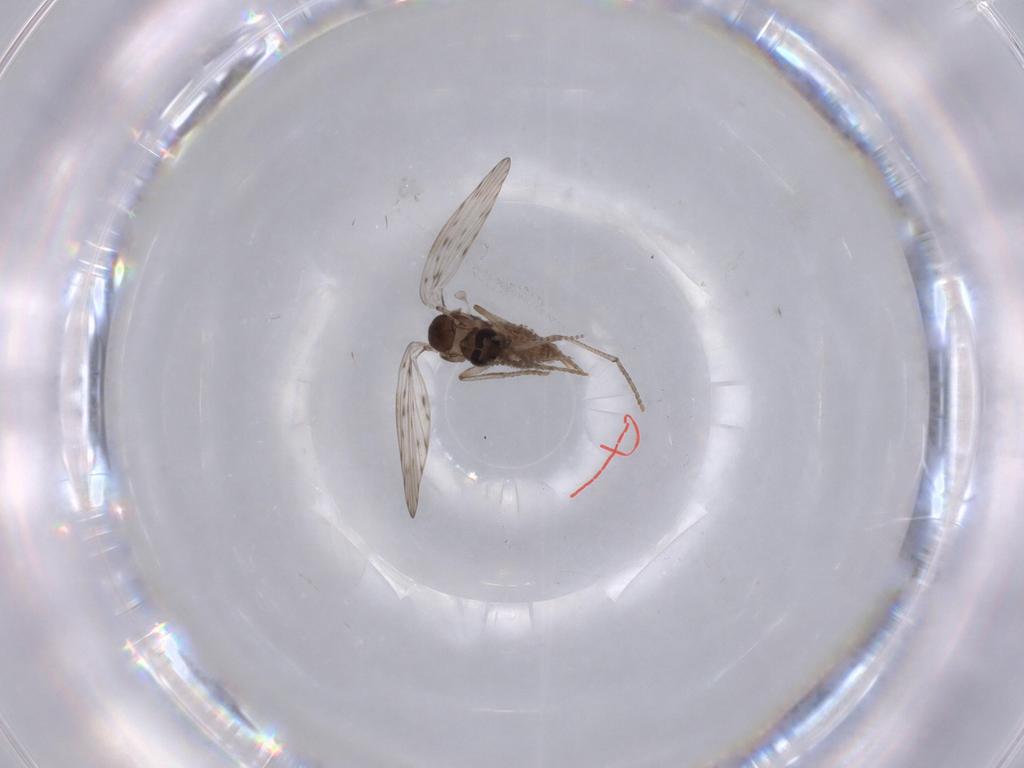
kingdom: Animalia
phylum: Arthropoda
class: Insecta
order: Diptera
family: Psychodidae
